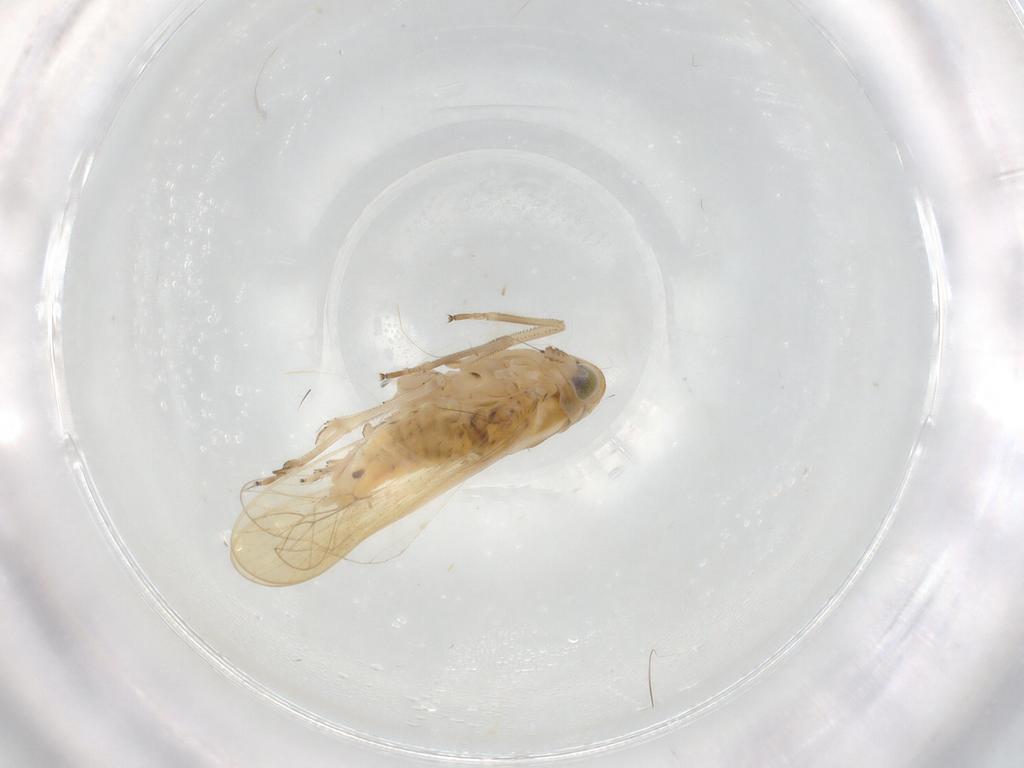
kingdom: Animalia
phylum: Arthropoda
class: Insecta
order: Hemiptera
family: Delphacidae
